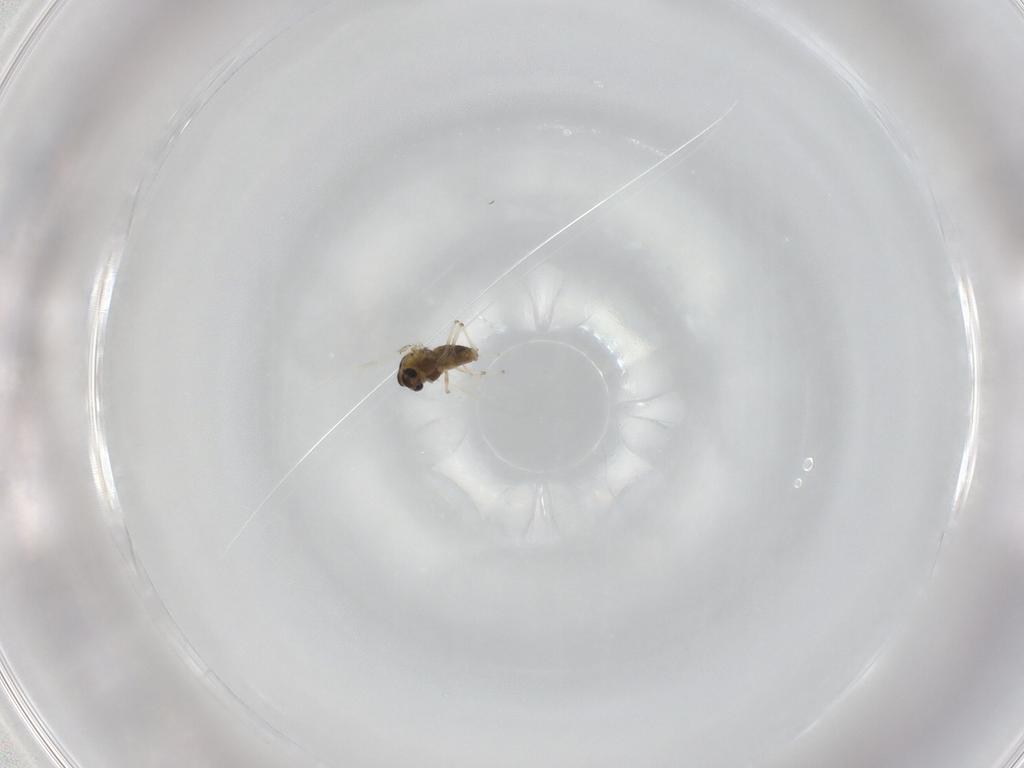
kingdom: Animalia
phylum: Arthropoda
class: Insecta
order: Diptera
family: Chironomidae
